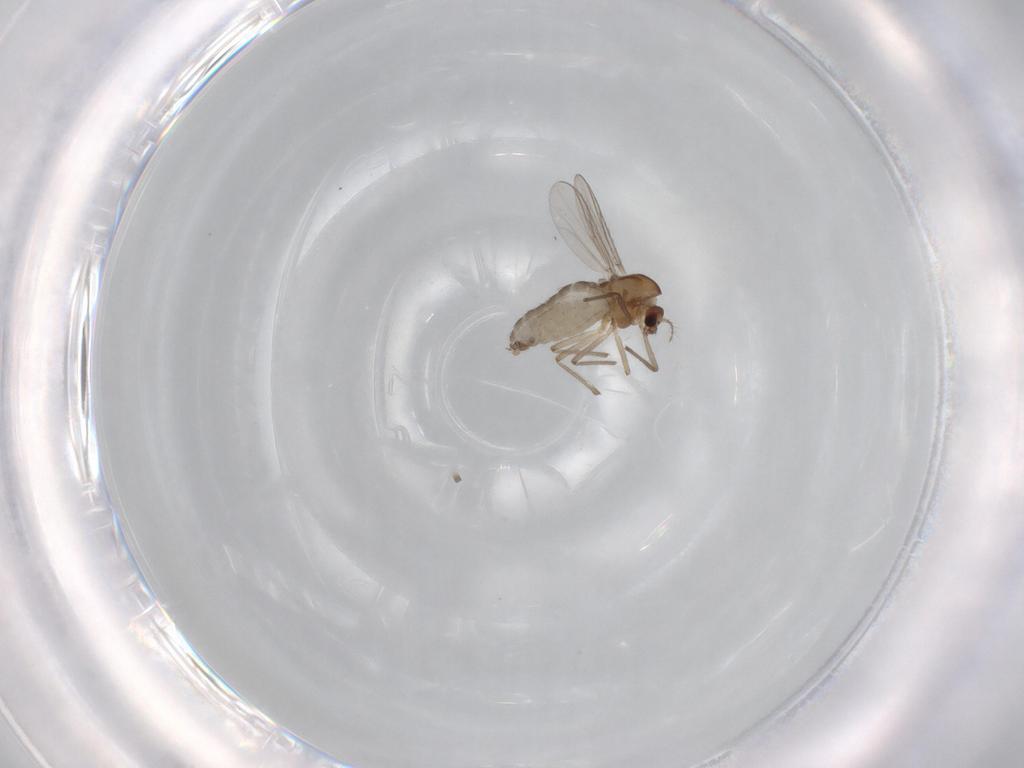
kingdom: Animalia
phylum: Arthropoda
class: Insecta
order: Diptera
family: Chironomidae
